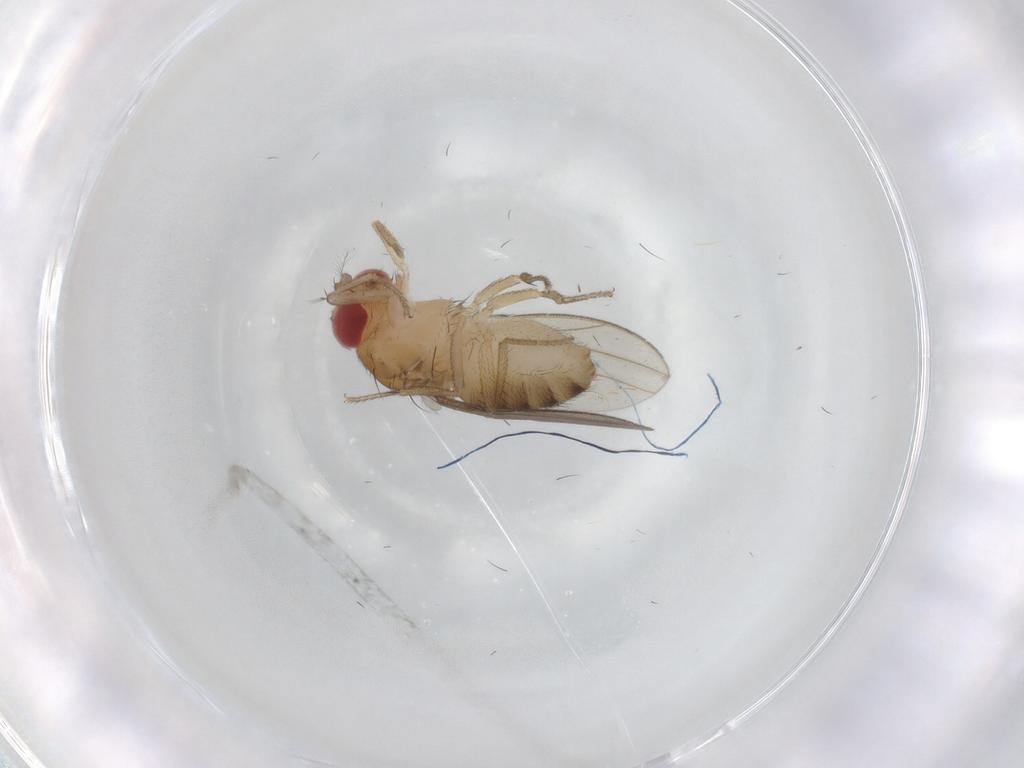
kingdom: Animalia
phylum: Arthropoda
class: Insecta
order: Diptera
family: Drosophilidae
